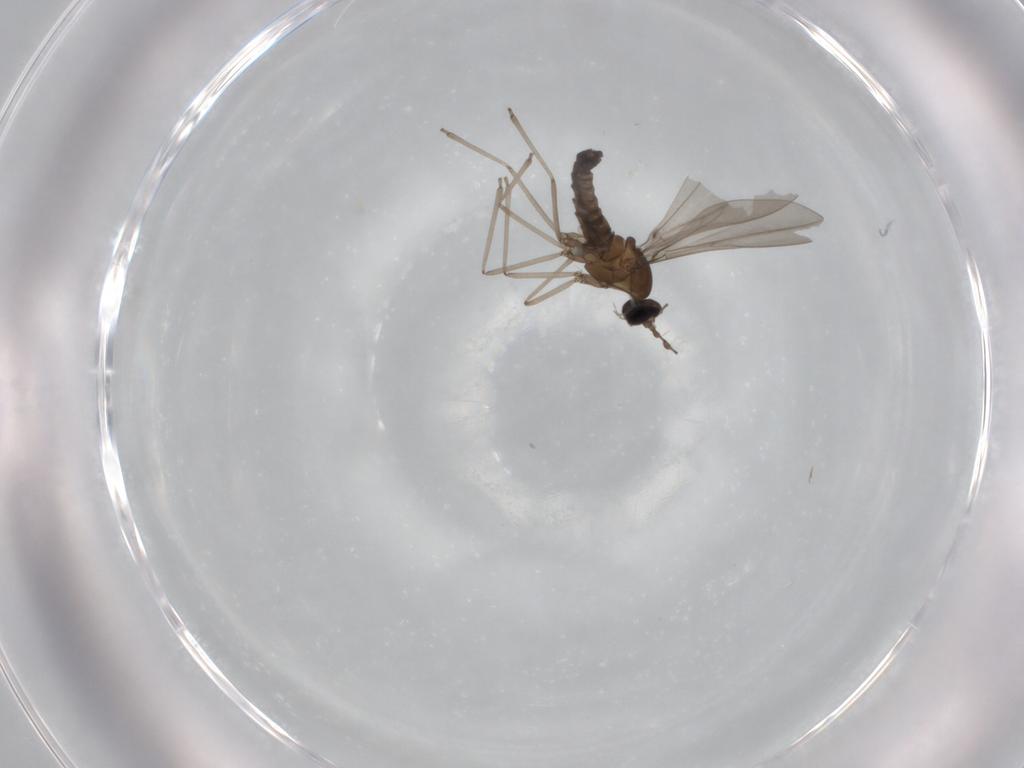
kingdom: Animalia
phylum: Arthropoda
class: Insecta
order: Diptera
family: Cecidomyiidae
